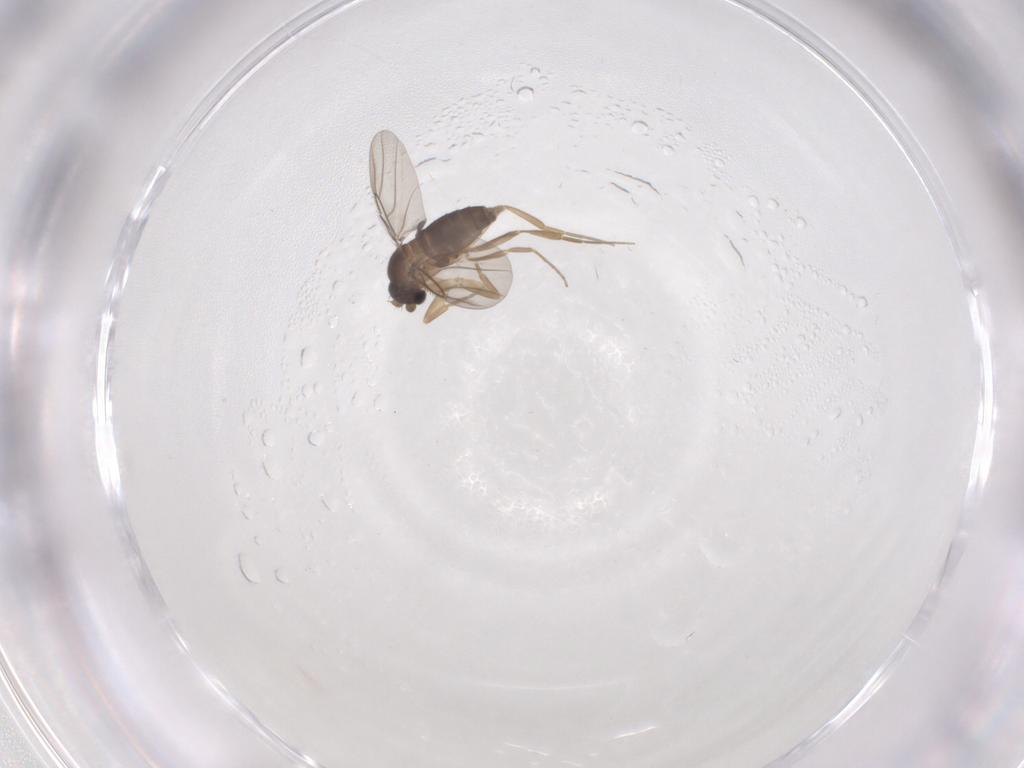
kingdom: Animalia
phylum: Arthropoda
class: Insecta
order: Diptera
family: Phoridae
